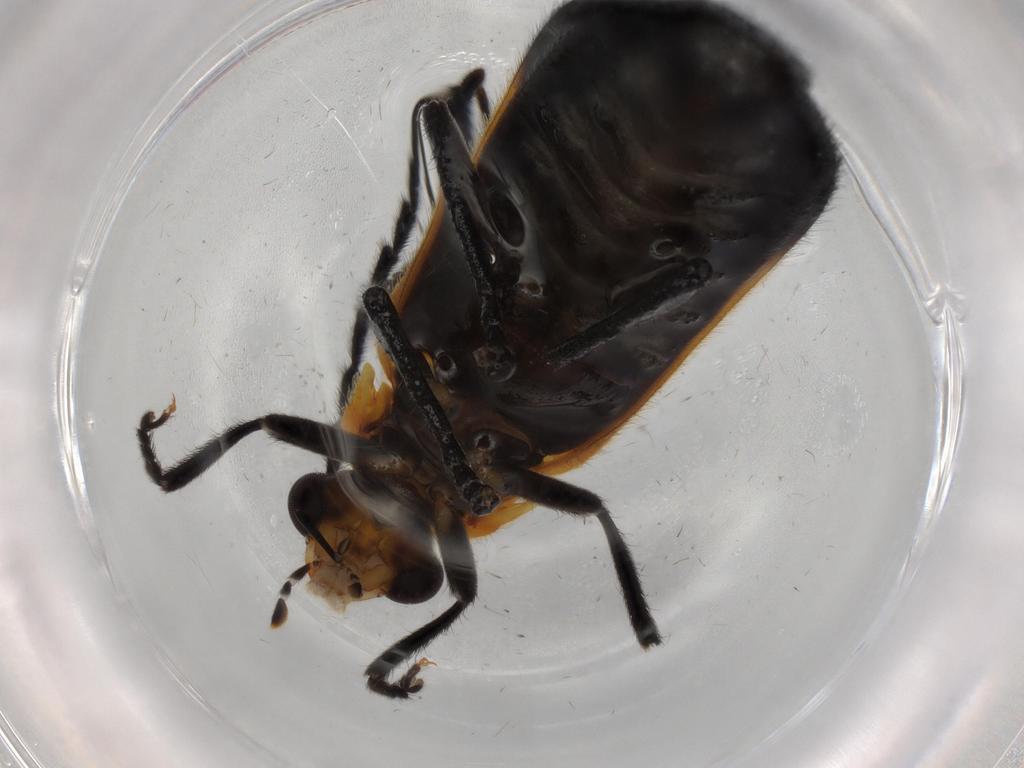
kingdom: Animalia
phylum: Arthropoda
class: Insecta
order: Coleoptera
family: Cantharidae
